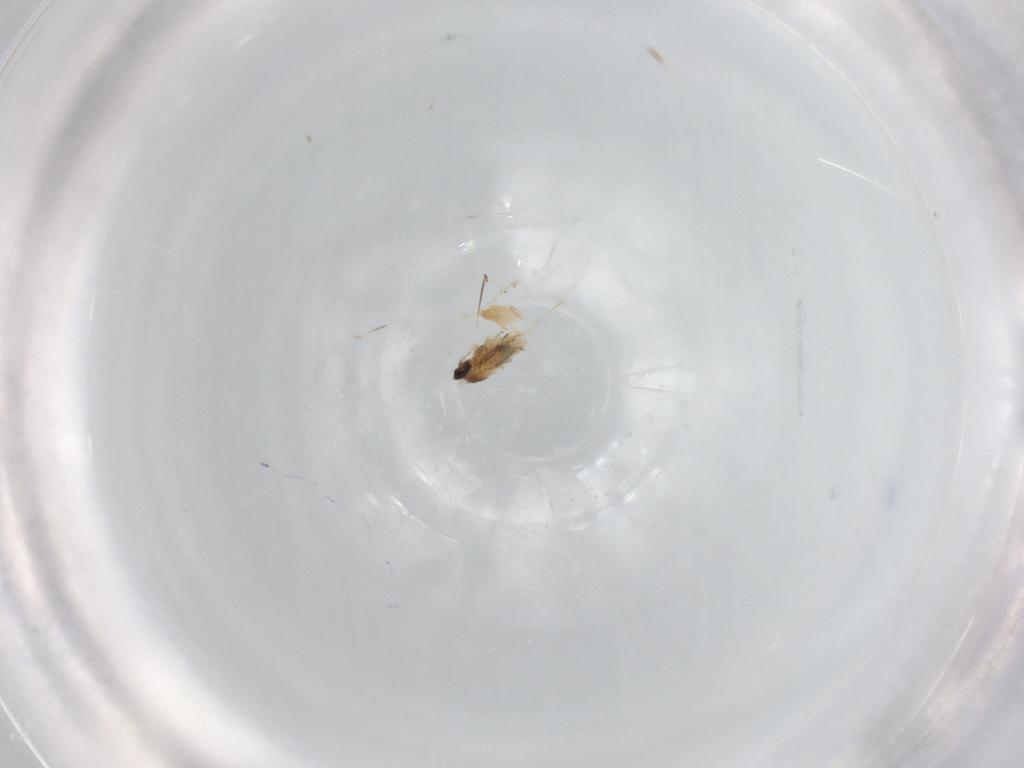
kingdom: Animalia
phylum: Arthropoda
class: Insecta
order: Diptera
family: Cecidomyiidae
